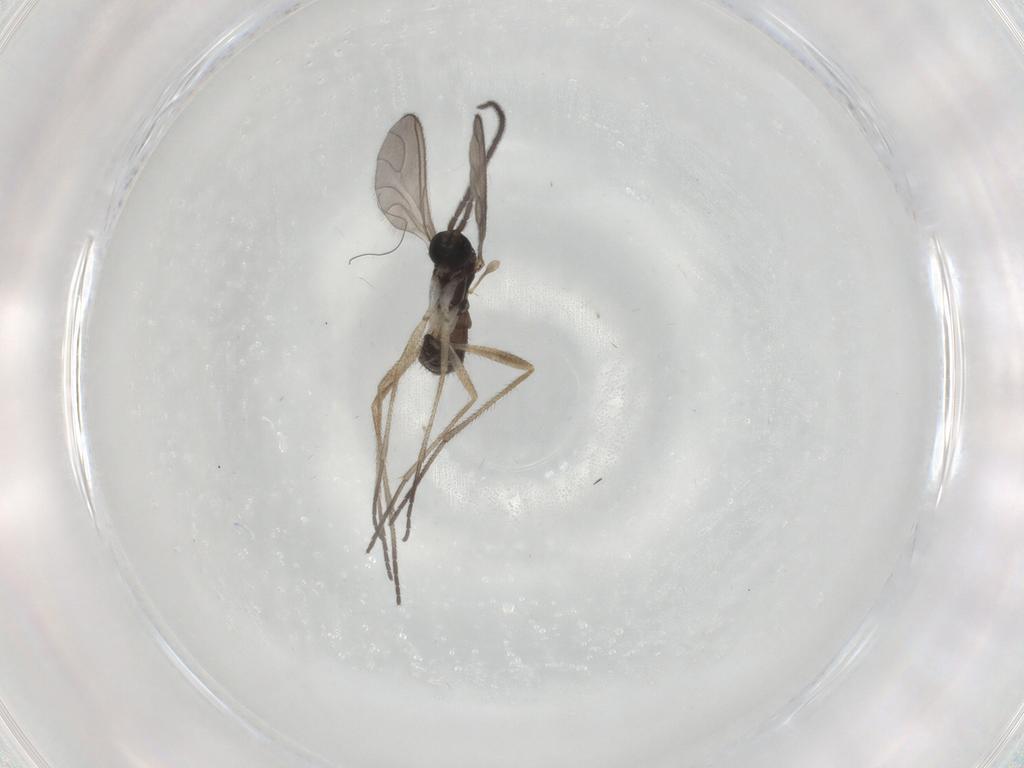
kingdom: Animalia
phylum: Arthropoda
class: Insecta
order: Diptera
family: Sciaridae
